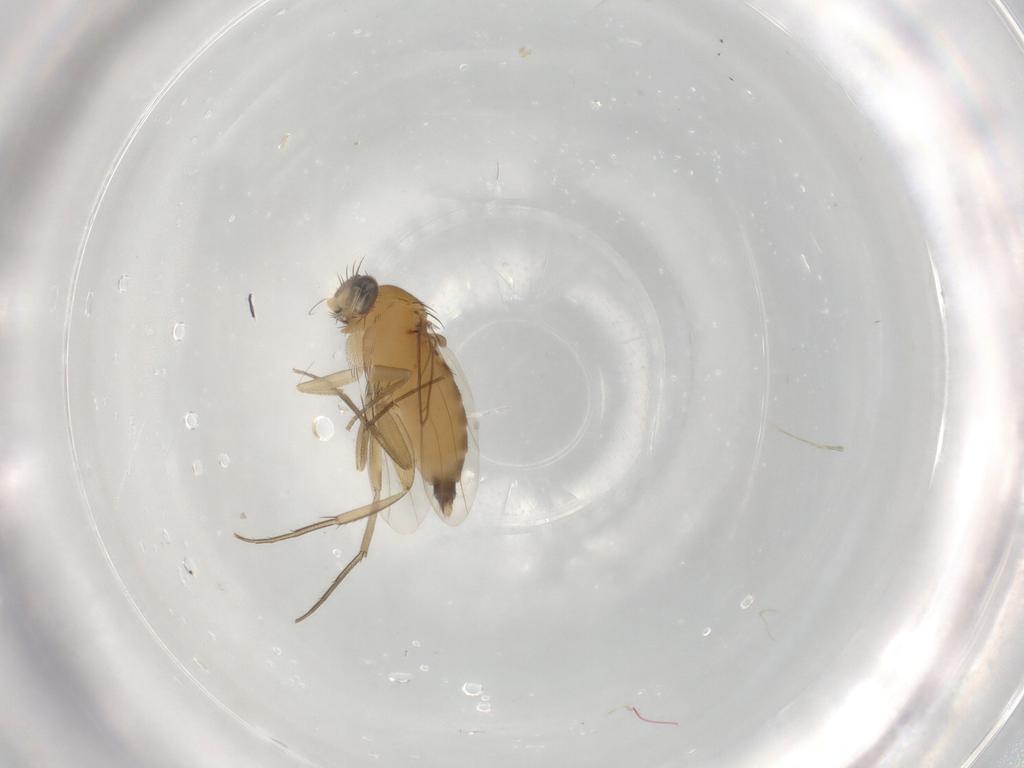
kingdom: Animalia
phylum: Arthropoda
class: Insecta
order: Diptera
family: Phoridae
